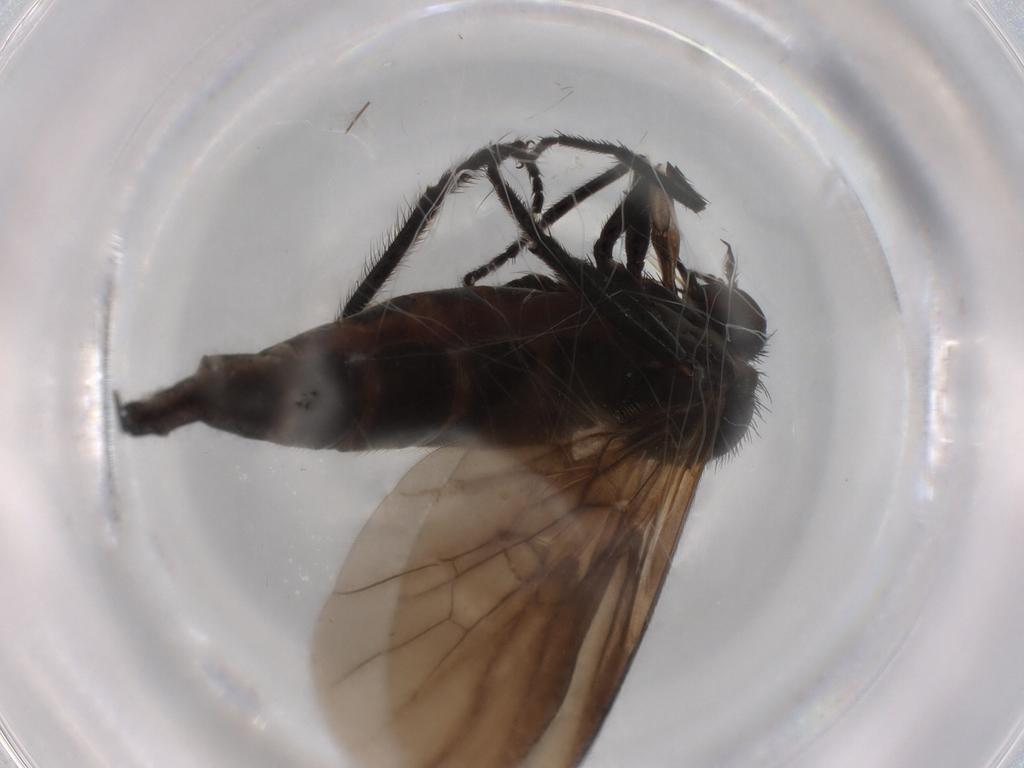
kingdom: Animalia
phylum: Arthropoda
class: Insecta
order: Diptera
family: Empididae
